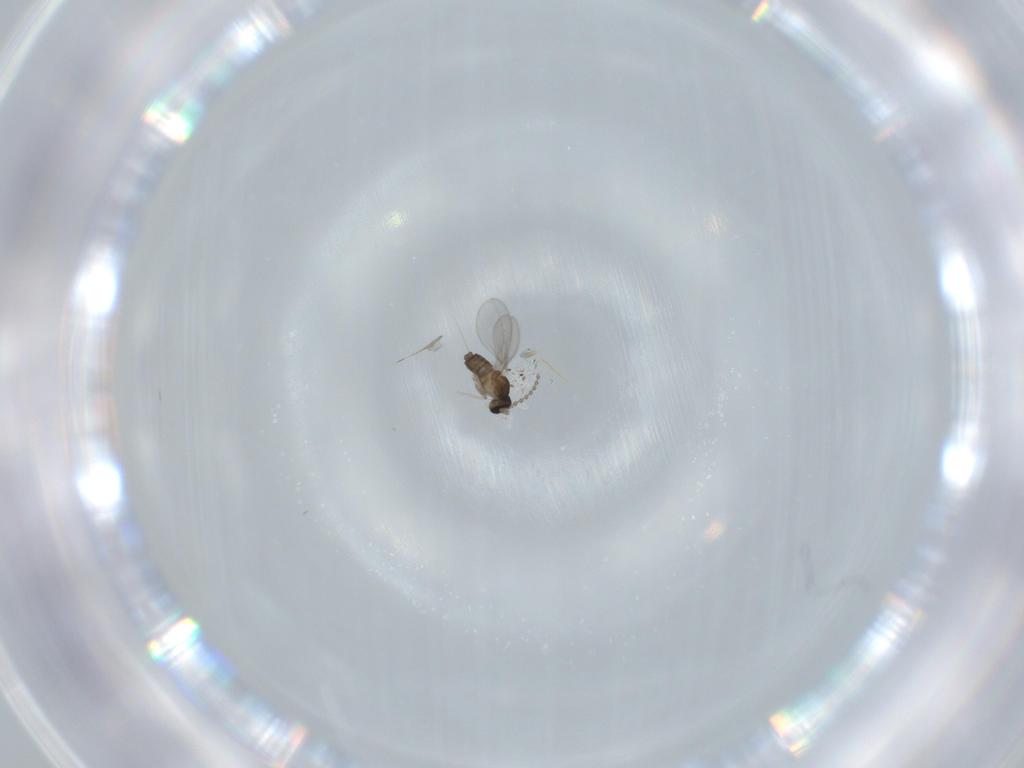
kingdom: Animalia
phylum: Arthropoda
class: Insecta
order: Diptera
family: Cecidomyiidae
